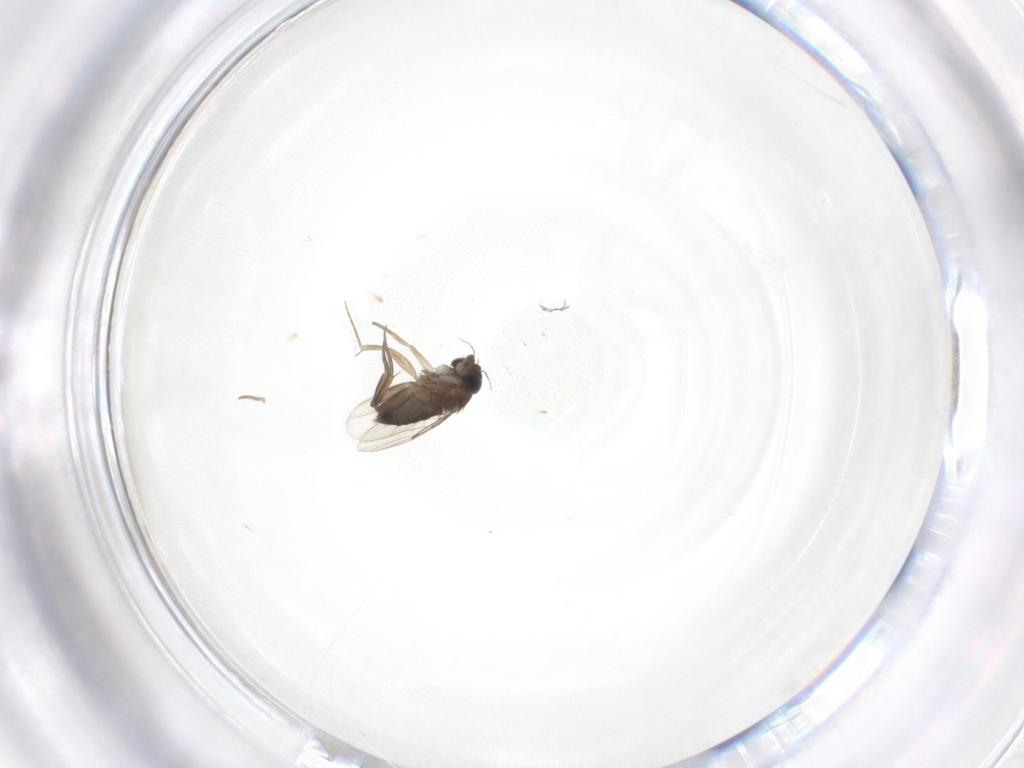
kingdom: Animalia
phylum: Arthropoda
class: Insecta
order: Diptera
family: Phoridae
